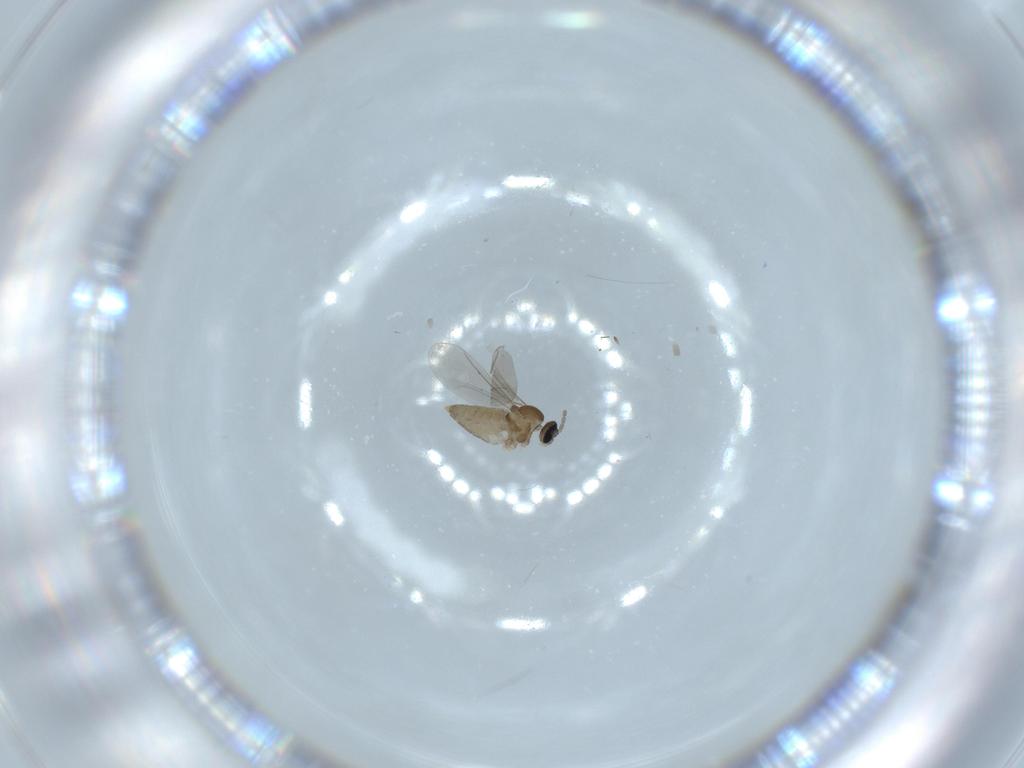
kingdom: Animalia
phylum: Arthropoda
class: Insecta
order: Diptera
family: Cecidomyiidae
